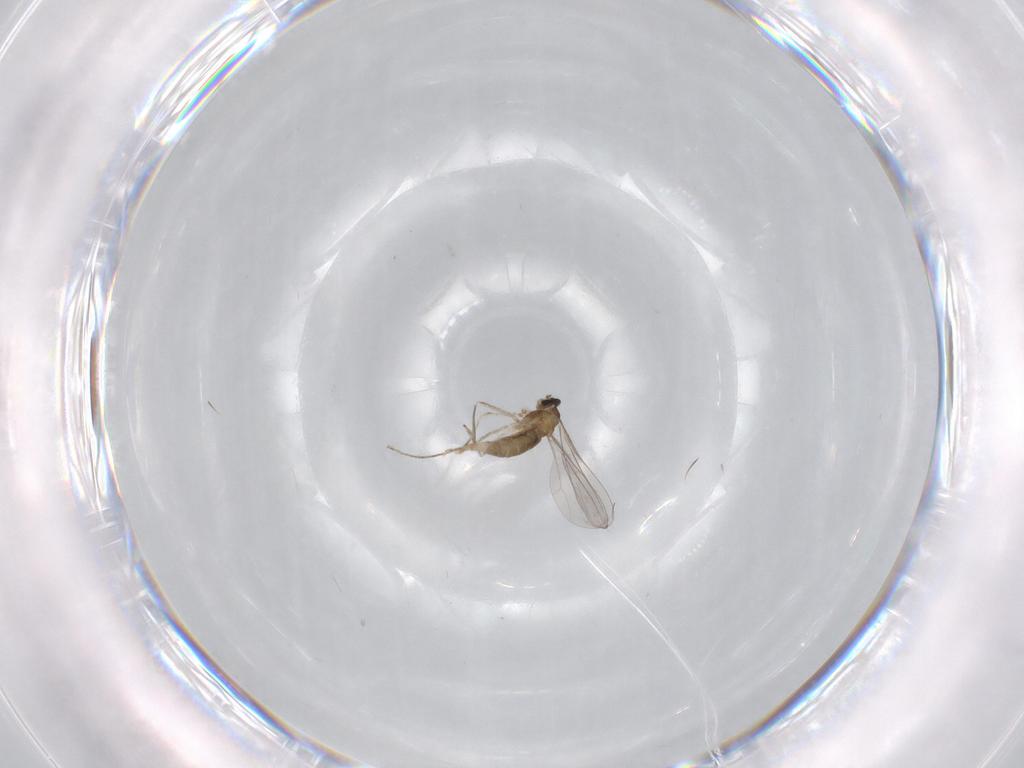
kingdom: Animalia
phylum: Arthropoda
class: Insecta
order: Diptera
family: Cecidomyiidae
